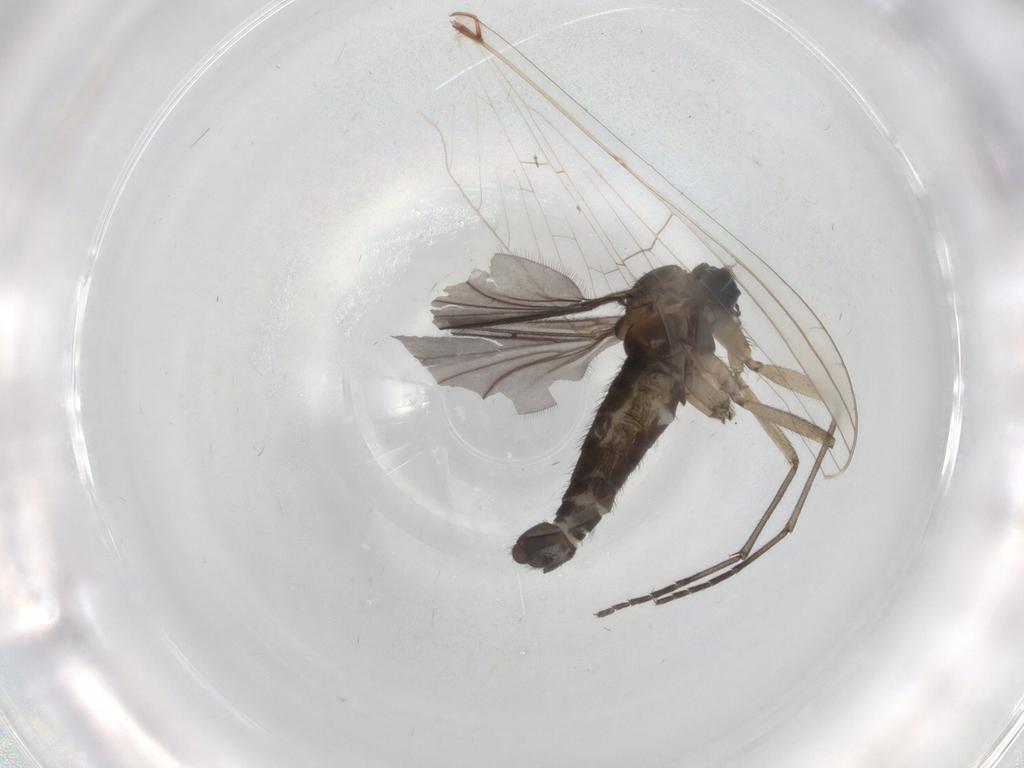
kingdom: Animalia
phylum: Arthropoda
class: Insecta
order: Diptera
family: Sciaridae
